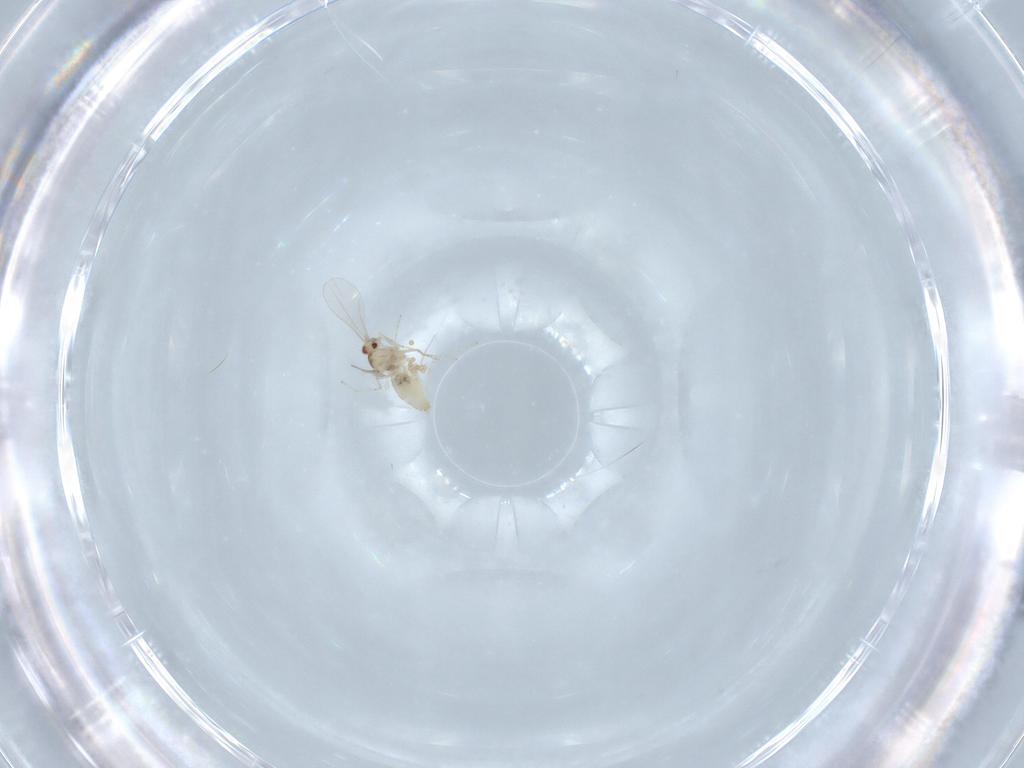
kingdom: Animalia
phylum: Arthropoda
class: Insecta
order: Diptera
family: Cecidomyiidae
